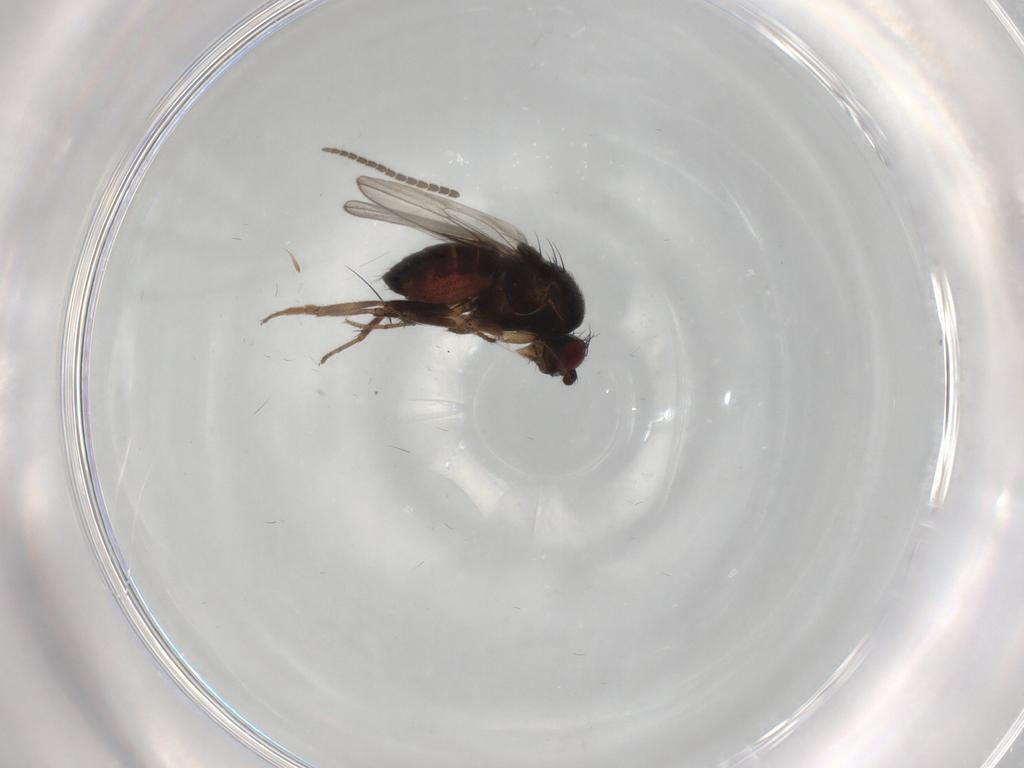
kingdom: Animalia
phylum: Arthropoda
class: Insecta
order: Diptera
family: Sphaeroceridae
